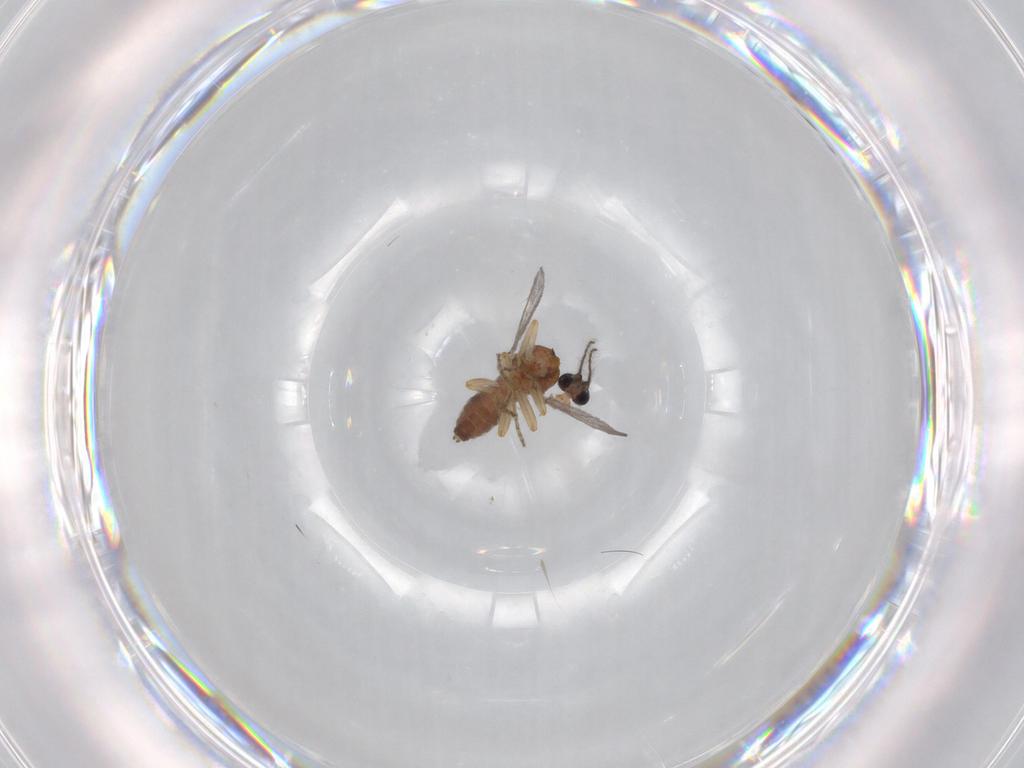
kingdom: Animalia
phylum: Arthropoda
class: Insecta
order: Diptera
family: Ceratopogonidae
